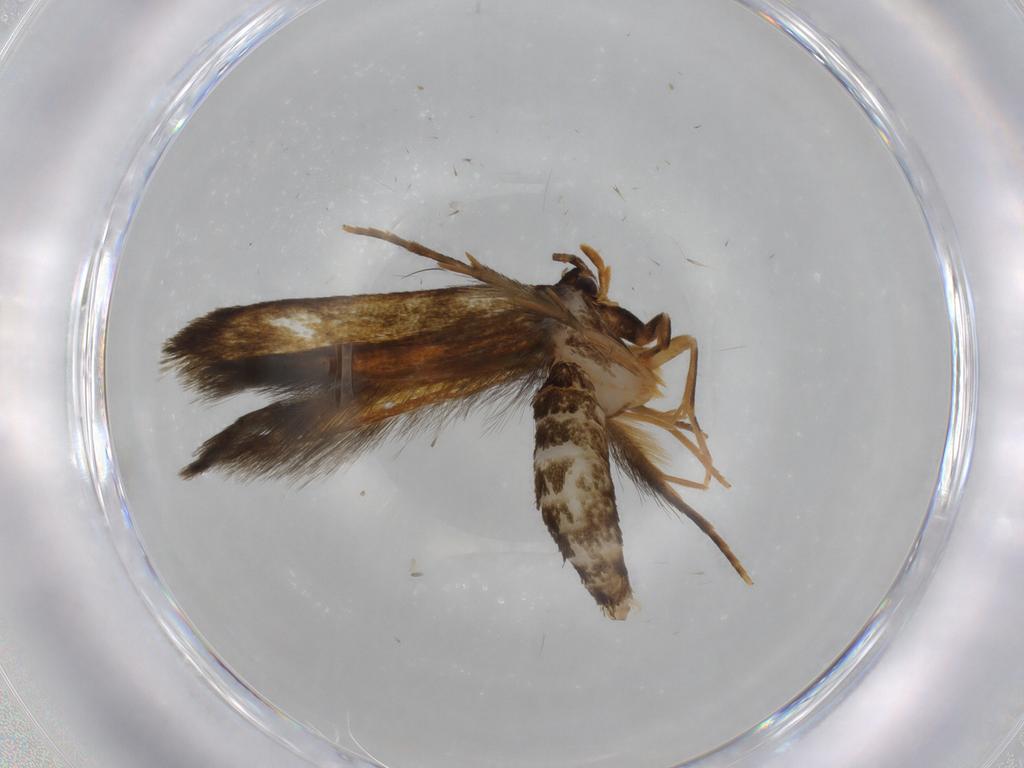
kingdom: Animalia
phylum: Arthropoda
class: Insecta
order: Lepidoptera
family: Tineidae
